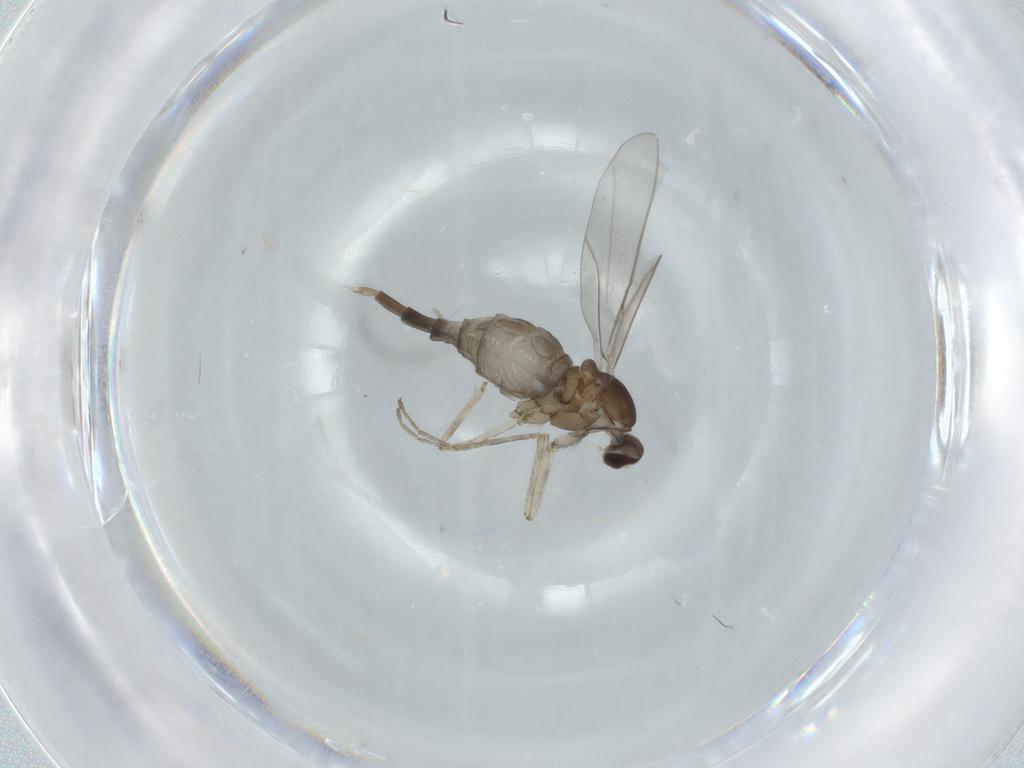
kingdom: Animalia
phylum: Arthropoda
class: Insecta
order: Diptera
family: Cecidomyiidae
